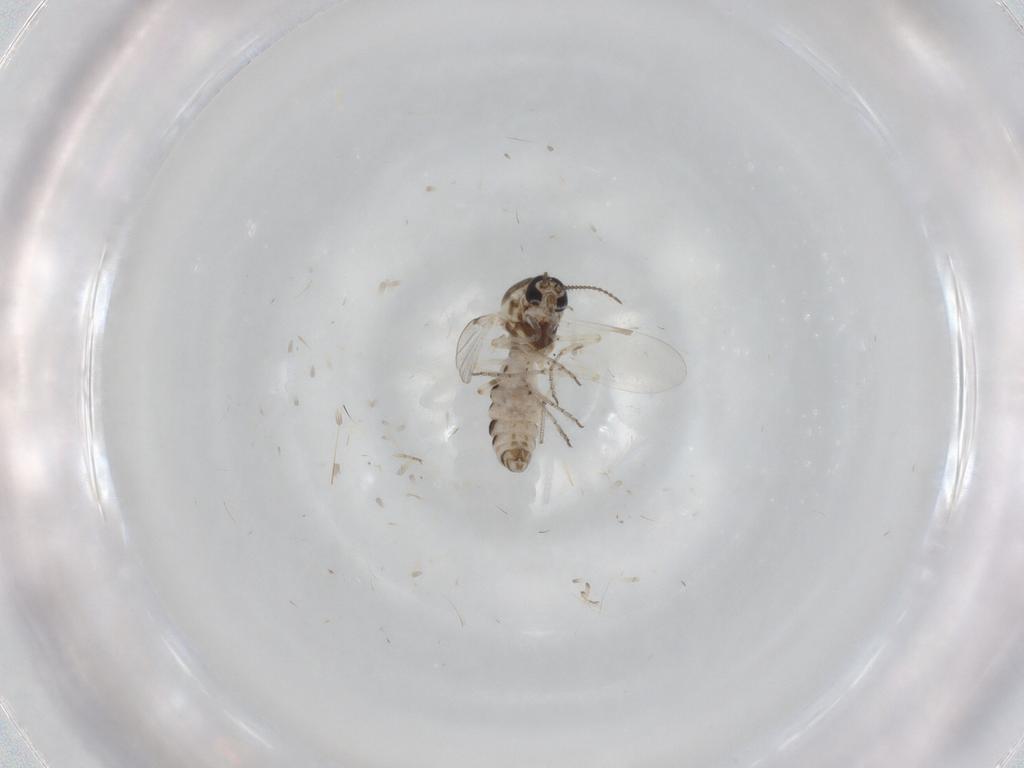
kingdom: Animalia
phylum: Arthropoda
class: Insecta
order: Diptera
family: Ceratopogonidae
